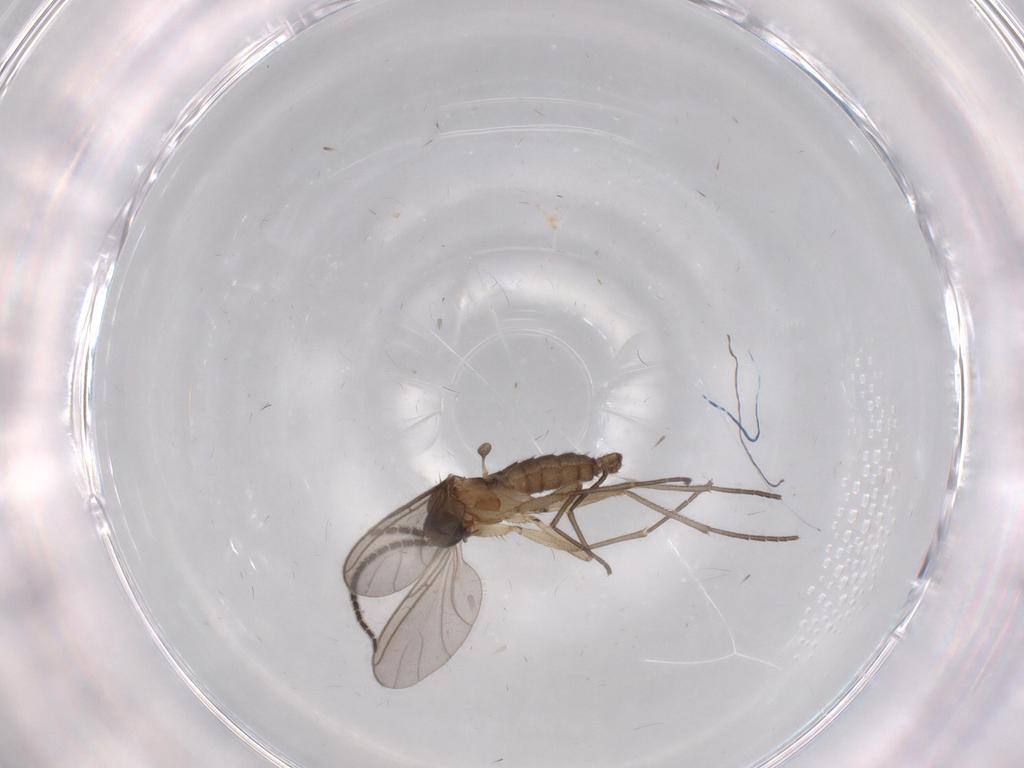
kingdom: Animalia
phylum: Arthropoda
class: Insecta
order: Diptera
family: Sciaridae
